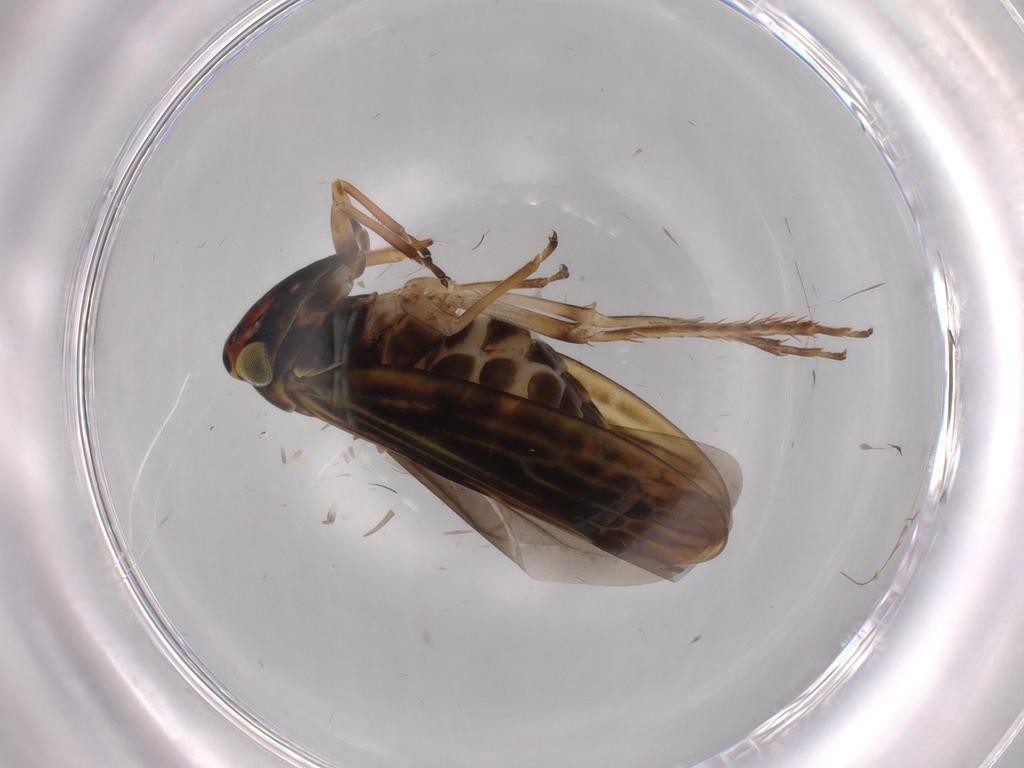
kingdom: Animalia
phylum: Arthropoda
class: Insecta
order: Hemiptera
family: Cicadellidae
